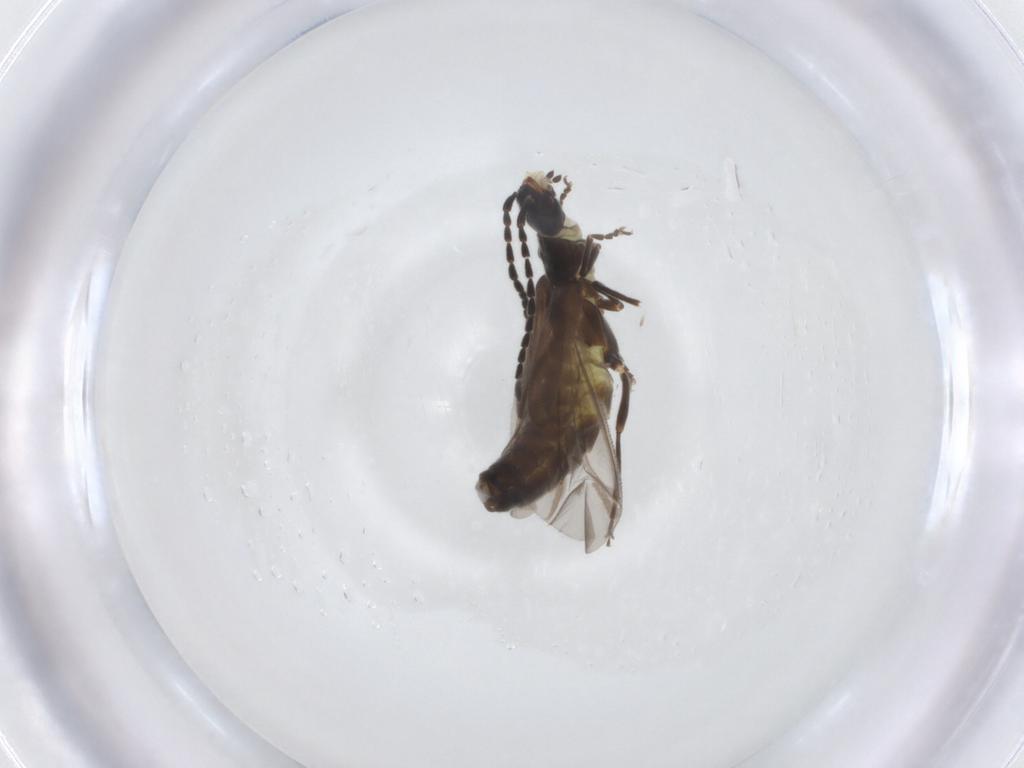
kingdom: Animalia
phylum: Arthropoda
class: Insecta
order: Coleoptera
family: Cantharidae
